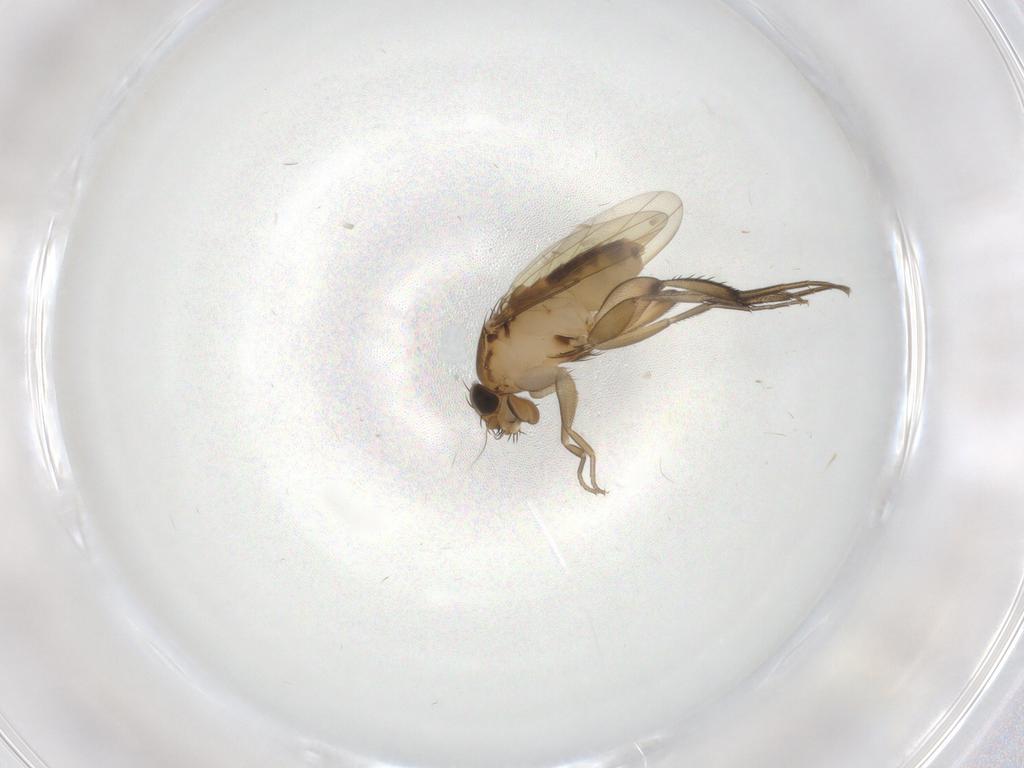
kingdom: Animalia
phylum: Arthropoda
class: Insecta
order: Diptera
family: Phoridae
